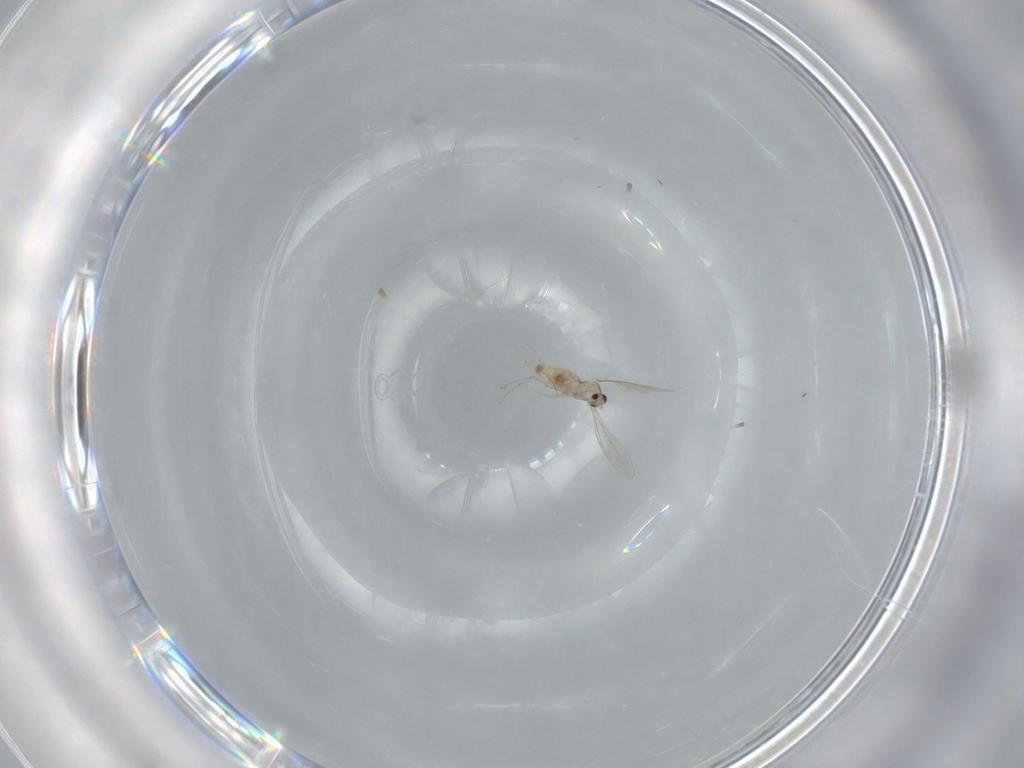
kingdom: Animalia
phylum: Arthropoda
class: Insecta
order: Diptera
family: Cecidomyiidae
